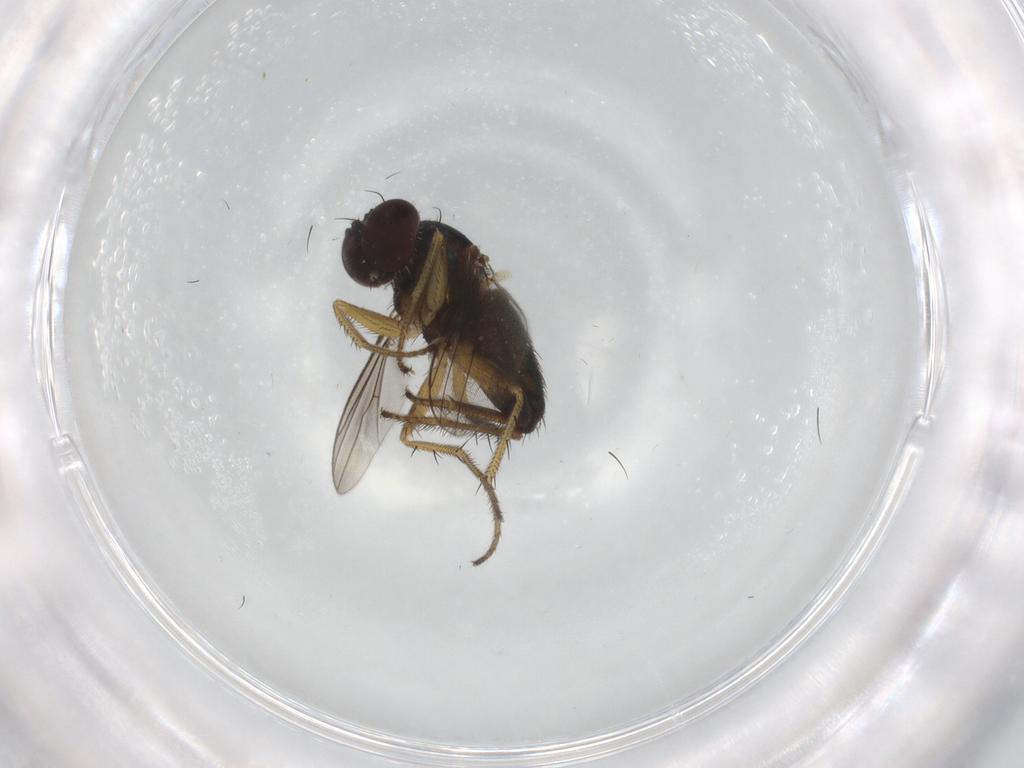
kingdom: Animalia
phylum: Arthropoda
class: Insecta
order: Diptera
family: Dolichopodidae
